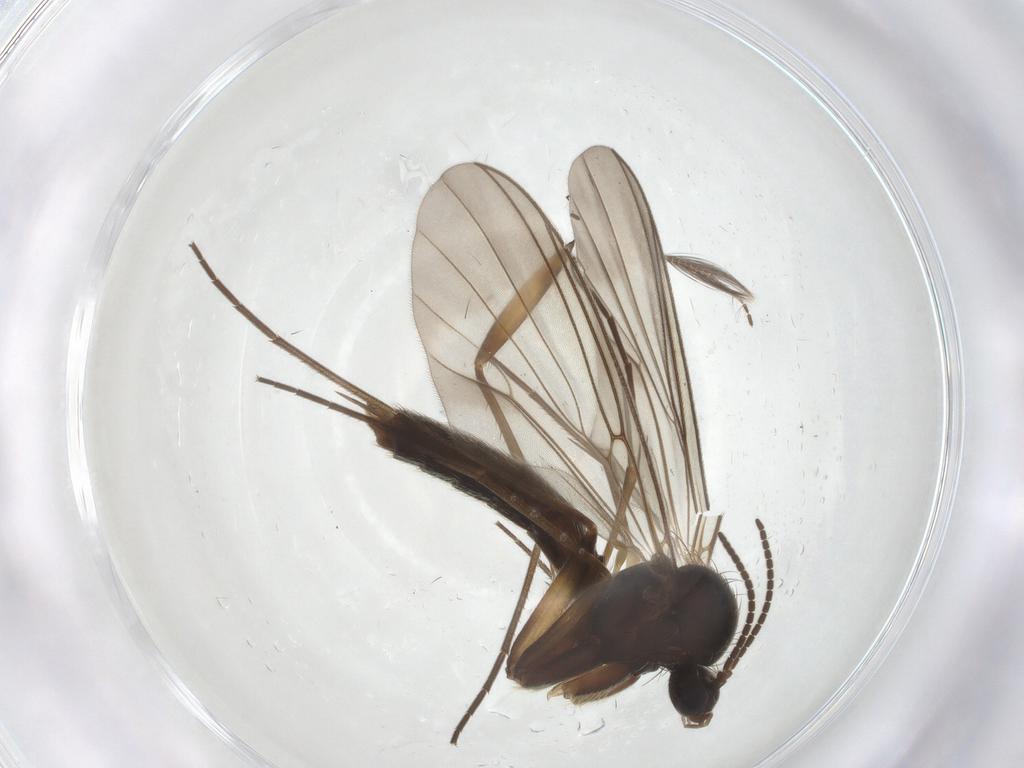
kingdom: Animalia
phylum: Arthropoda
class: Insecta
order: Diptera
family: Mycetophilidae
